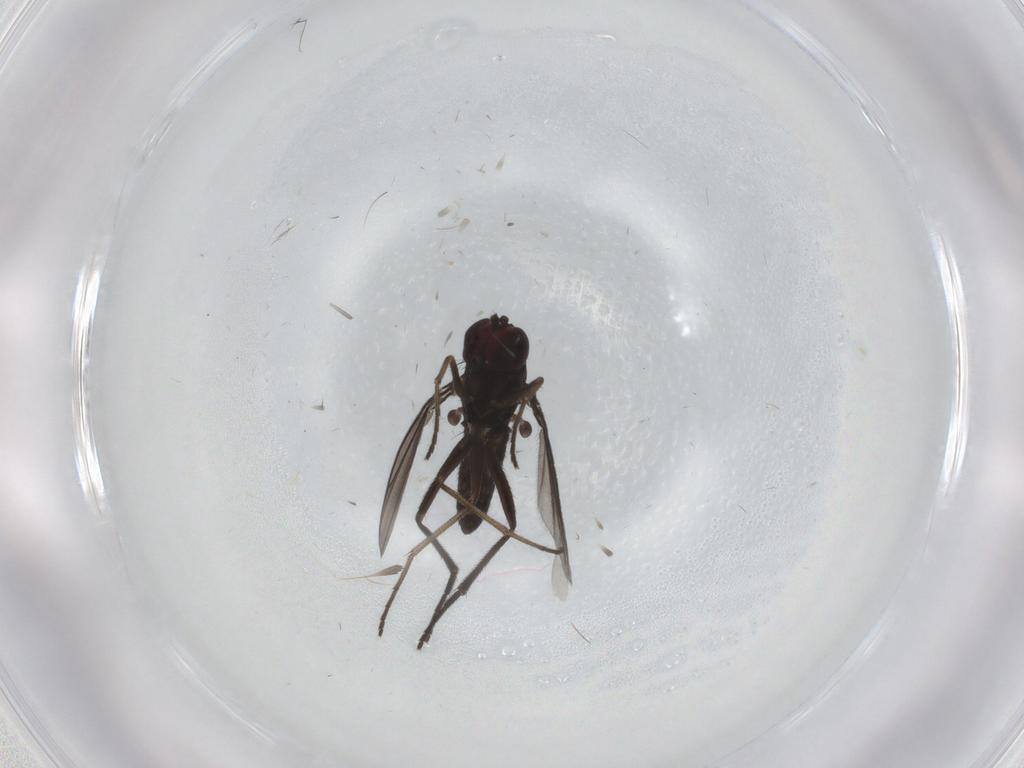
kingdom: Animalia
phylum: Arthropoda
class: Insecta
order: Diptera
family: Dolichopodidae
